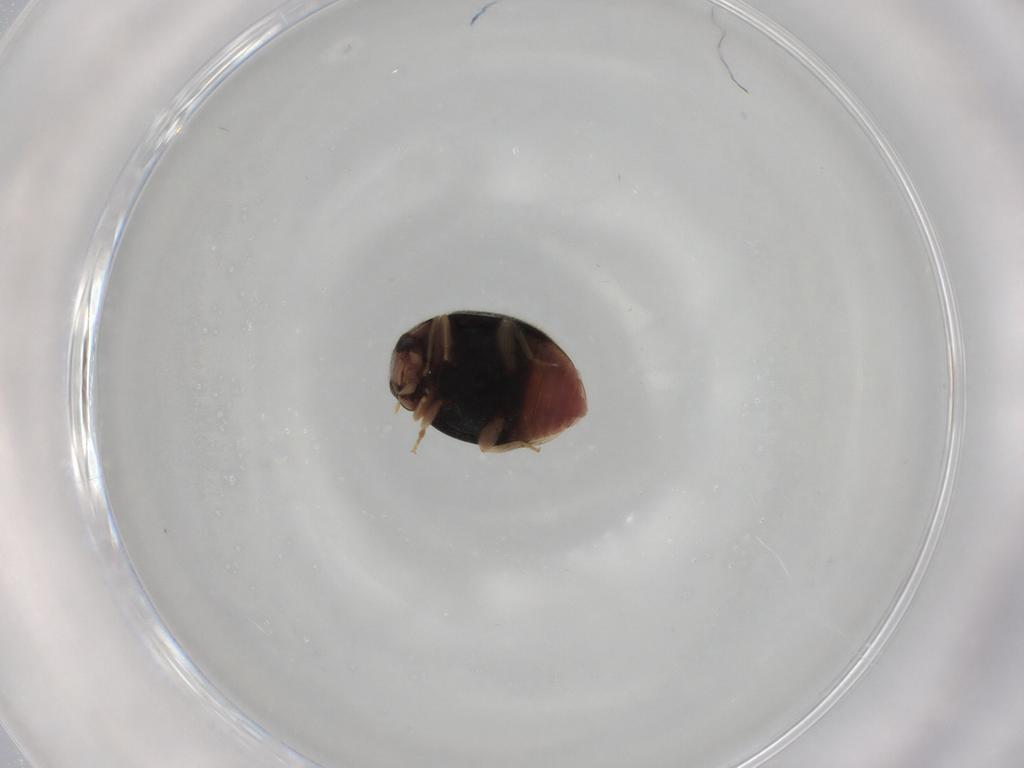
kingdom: Animalia
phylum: Arthropoda
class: Insecta
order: Coleoptera
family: Coccinellidae
